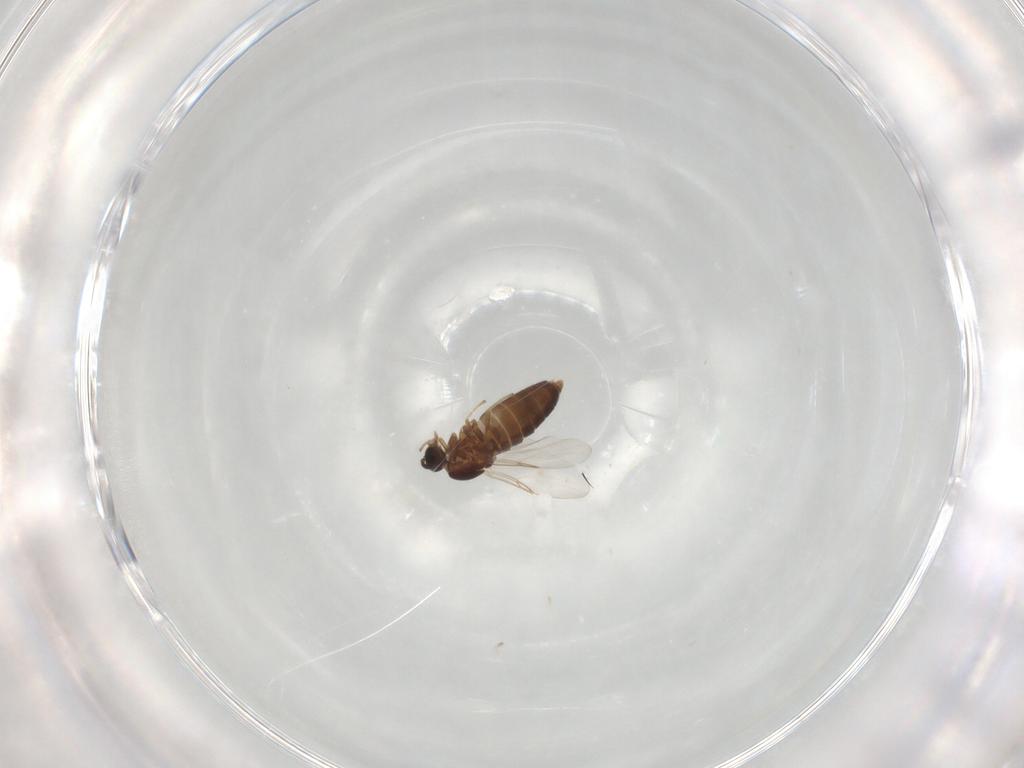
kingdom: Animalia
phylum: Arthropoda
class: Insecta
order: Diptera
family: Scatopsidae
